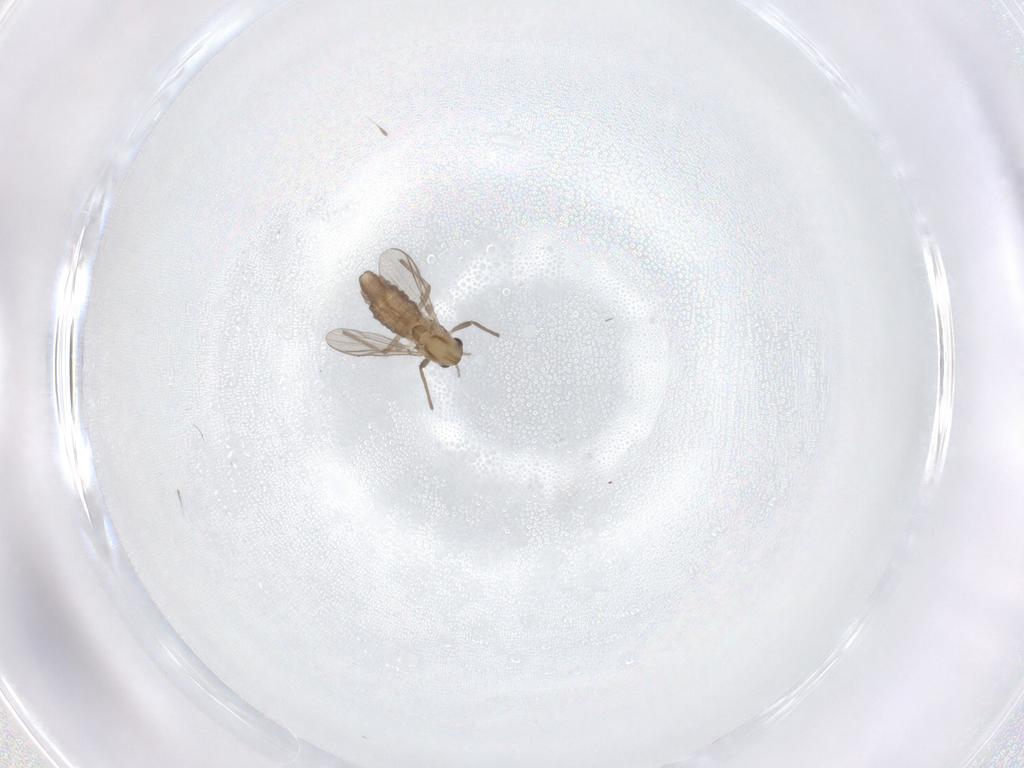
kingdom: Animalia
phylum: Arthropoda
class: Insecta
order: Diptera
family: Chironomidae
